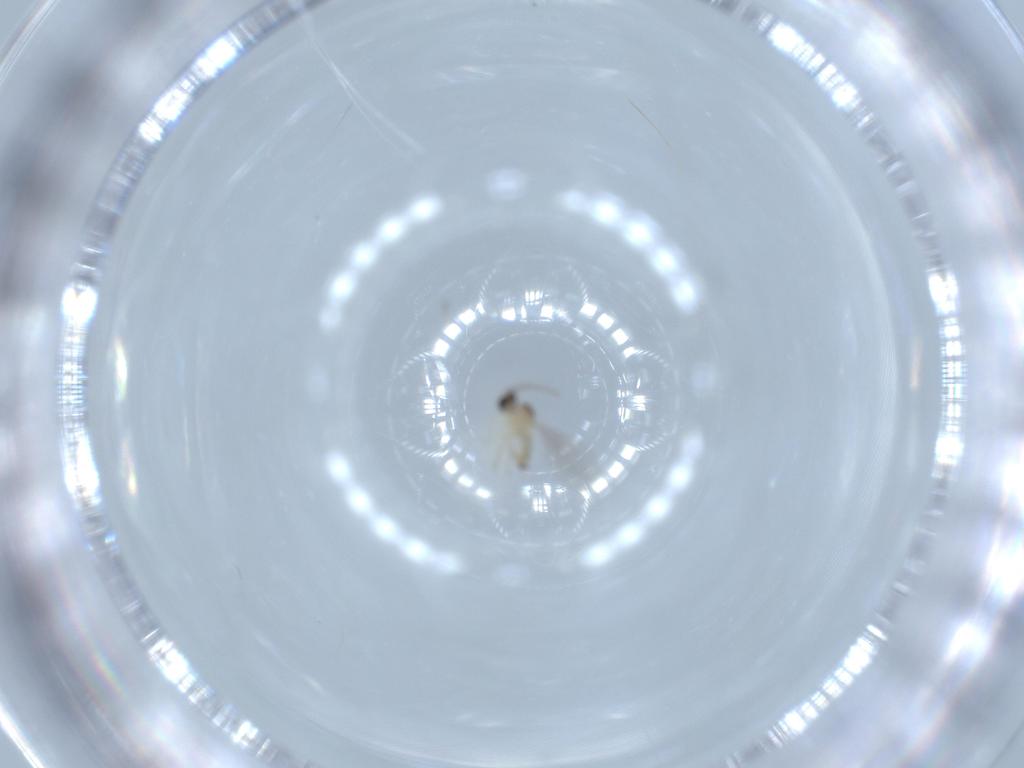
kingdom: Animalia
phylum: Arthropoda
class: Insecta
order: Diptera
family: Cecidomyiidae
